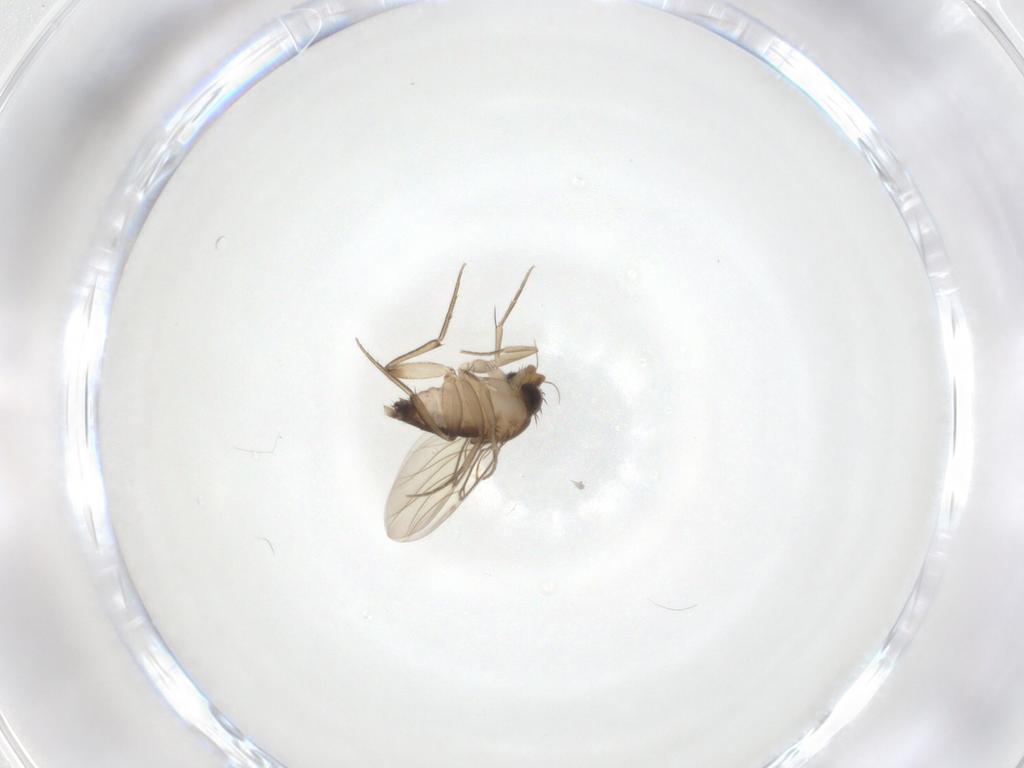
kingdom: Animalia
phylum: Arthropoda
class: Insecta
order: Diptera
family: Phoridae
